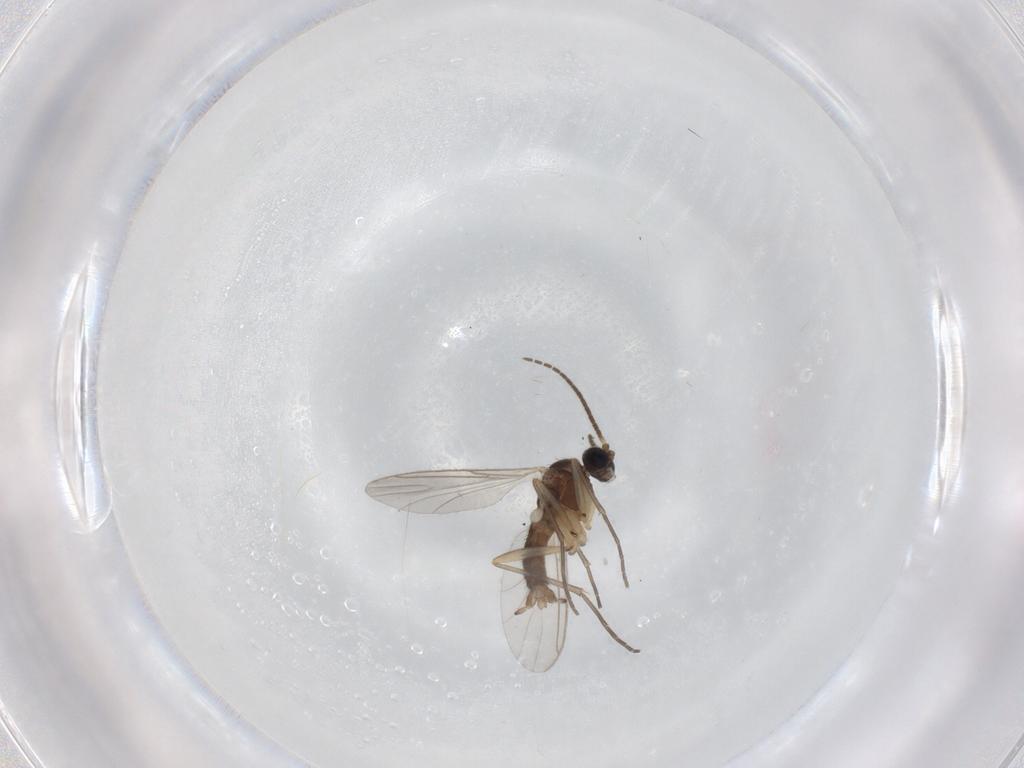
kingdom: Animalia
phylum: Arthropoda
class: Insecta
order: Diptera
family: Sciaridae
